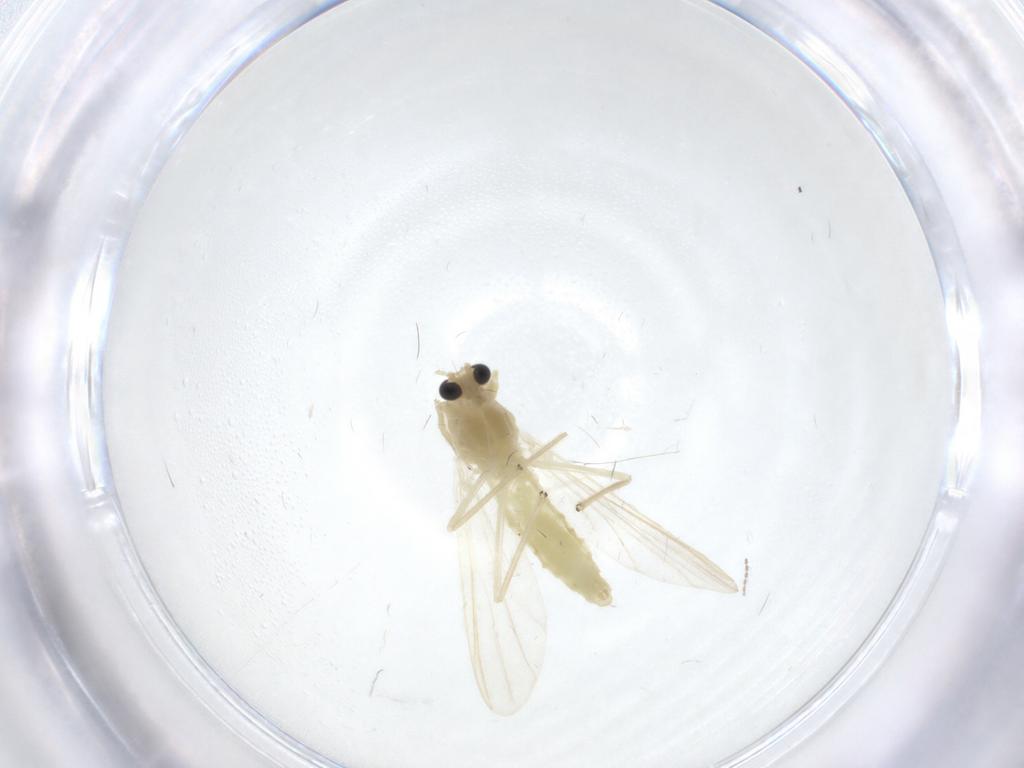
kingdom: Animalia
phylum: Arthropoda
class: Insecta
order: Diptera
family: Chironomidae
